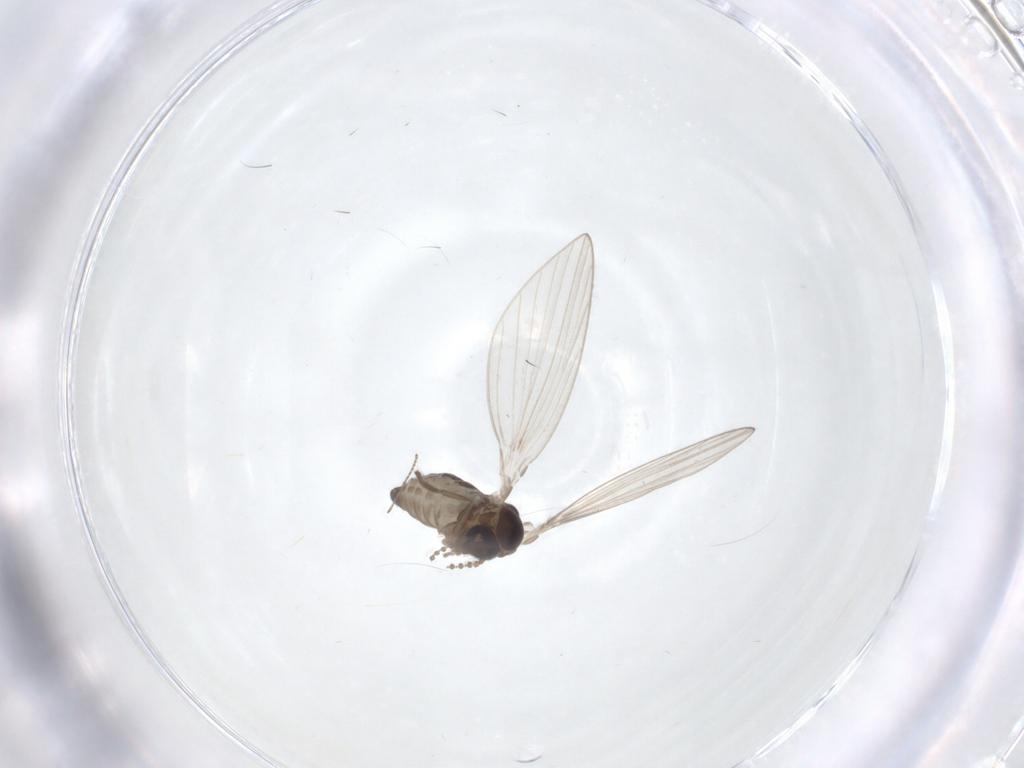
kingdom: Animalia
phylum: Arthropoda
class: Insecta
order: Diptera
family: Psychodidae
